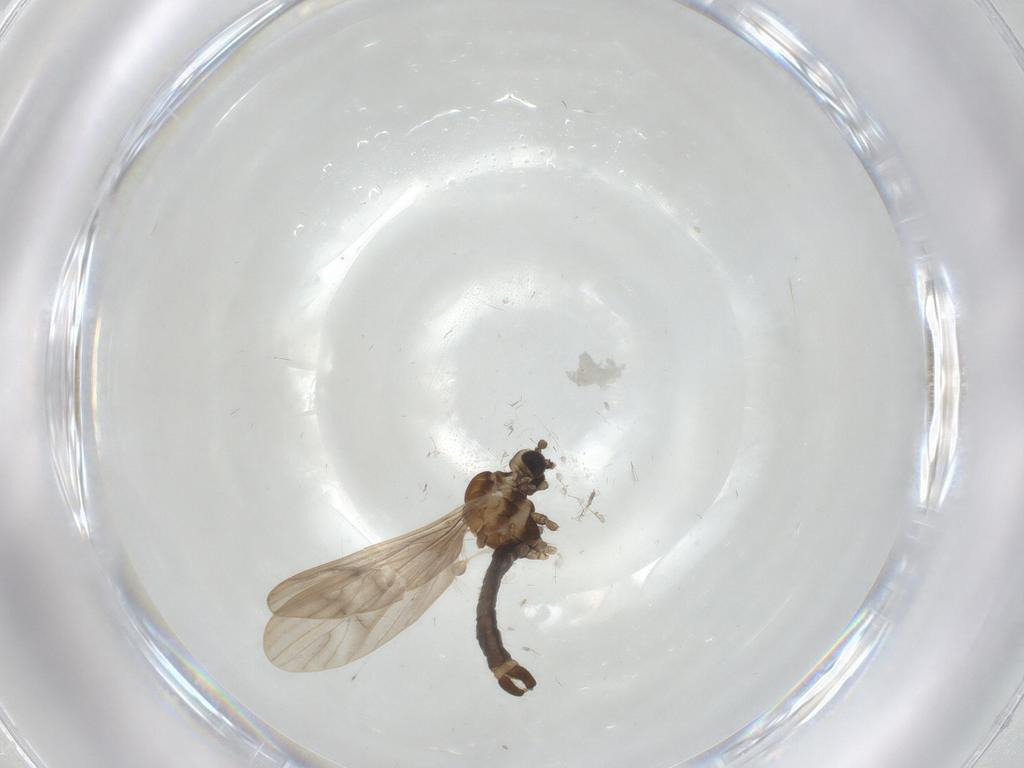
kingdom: Animalia
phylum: Arthropoda
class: Insecta
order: Diptera
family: Limoniidae
